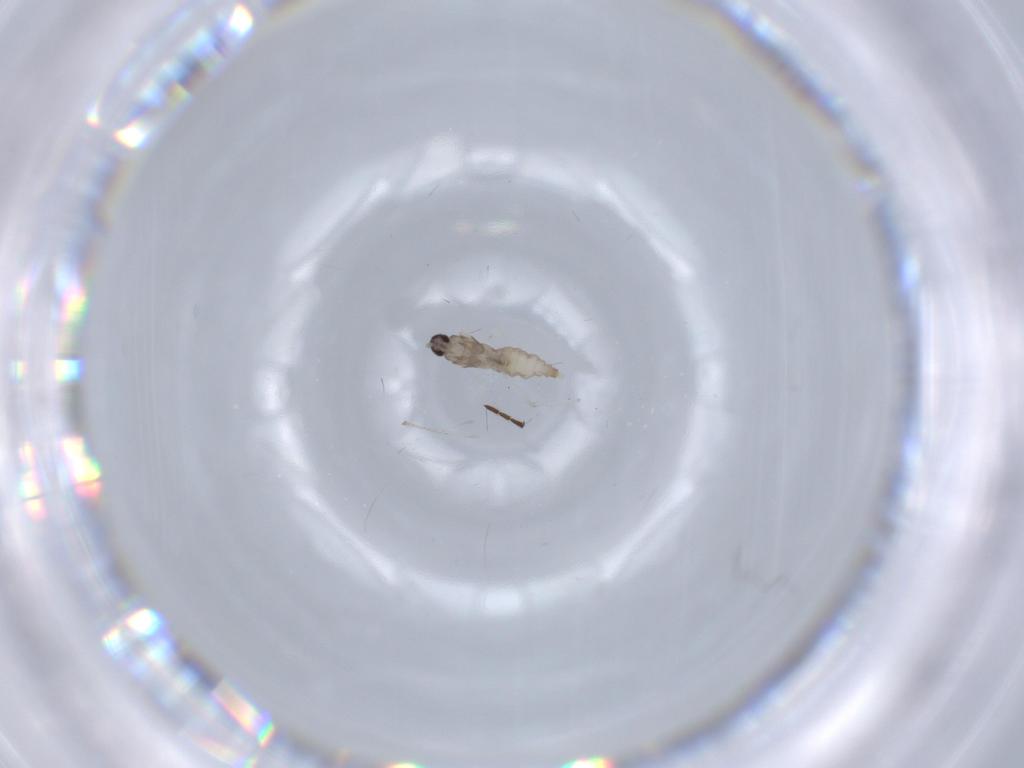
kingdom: Animalia
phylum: Arthropoda
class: Insecta
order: Diptera
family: Cecidomyiidae
